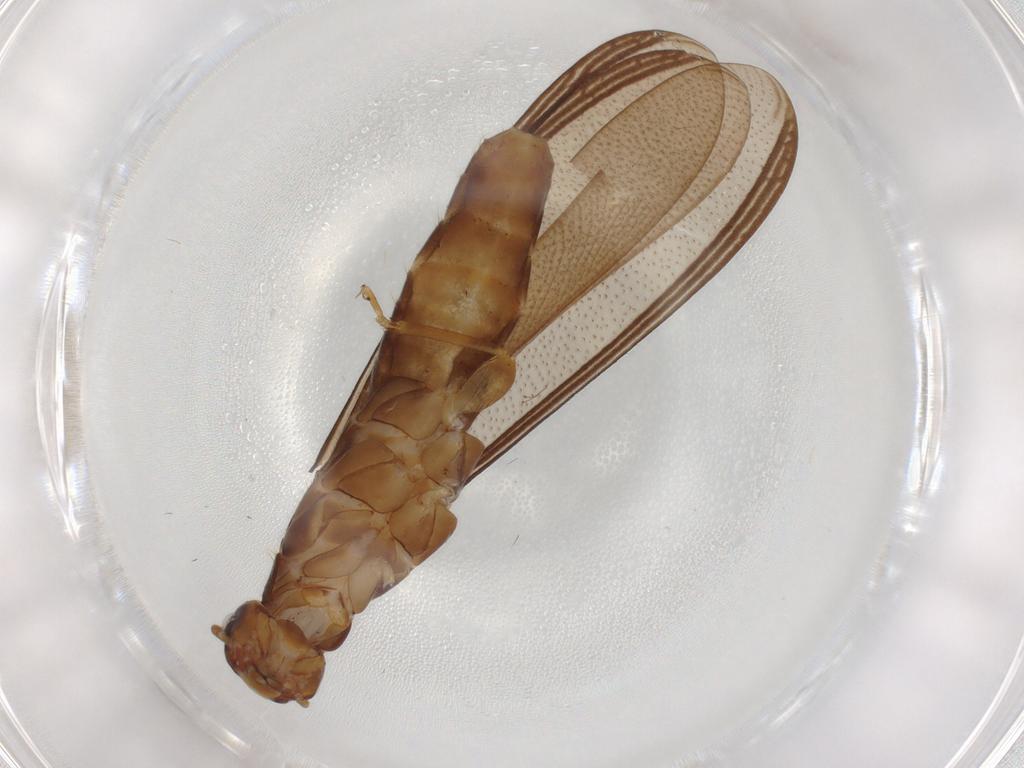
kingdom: Animalia
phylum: Arthropoda
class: Insecta
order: Blattodea
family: Kalotermitidae
